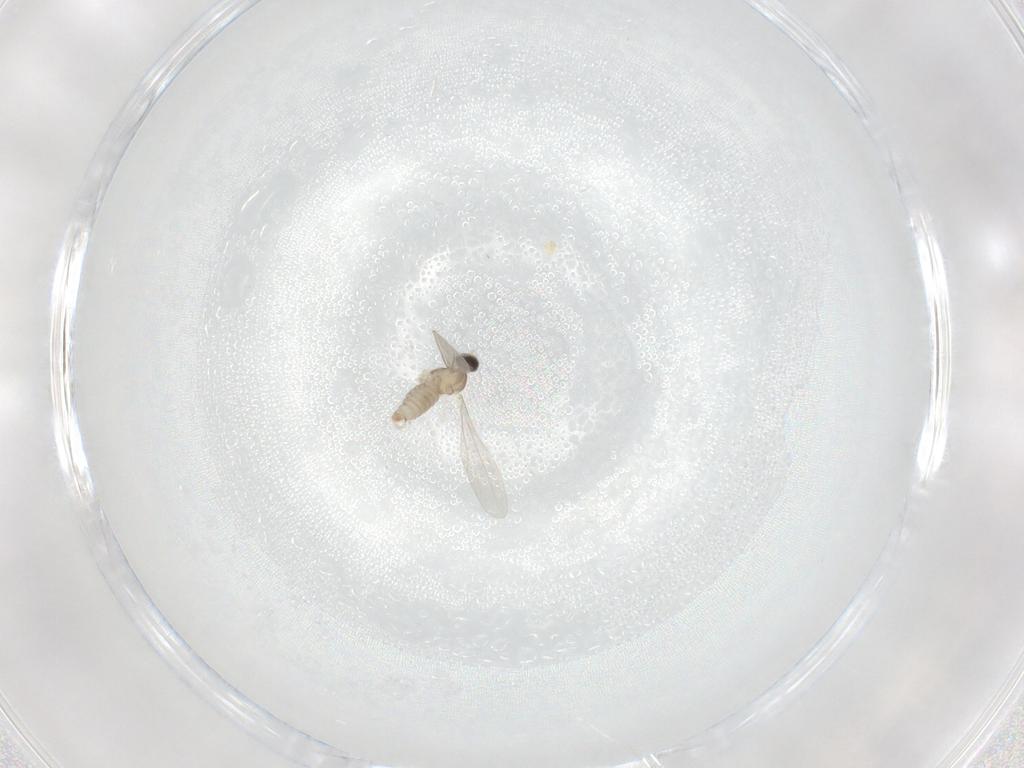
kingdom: Animalia
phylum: Arthropoda
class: Insecta
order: Diptera
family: Cecidomyiidae
